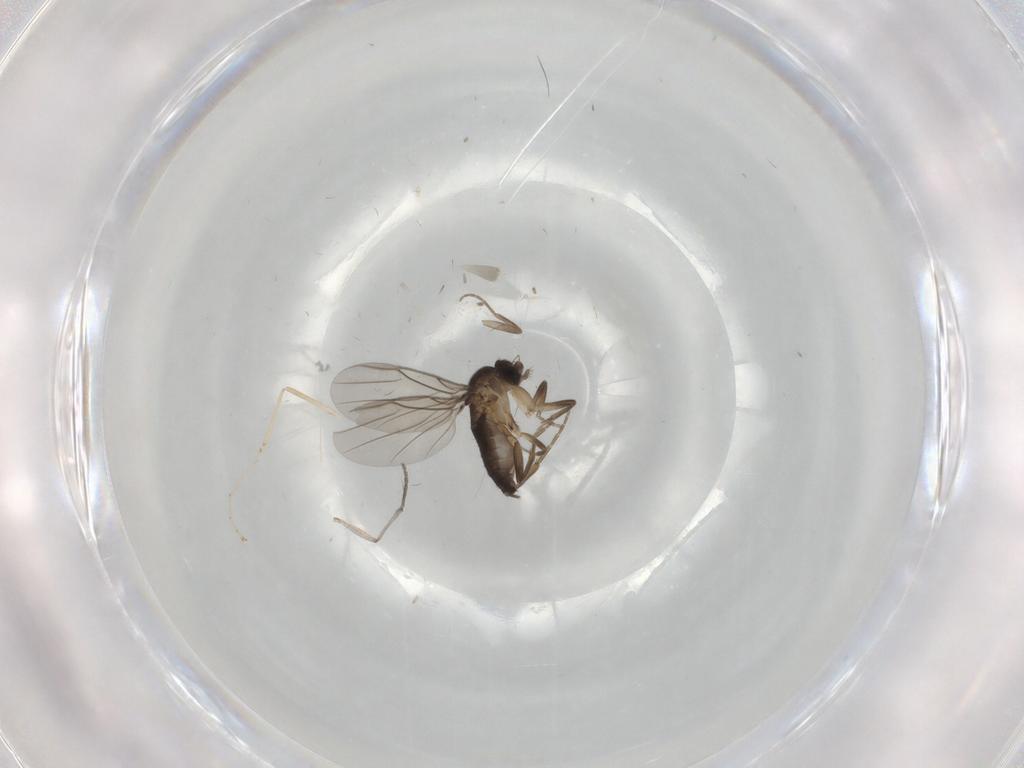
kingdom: Animalia
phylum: Arthropoda
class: Insecta
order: Diptera
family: Sciaridae
